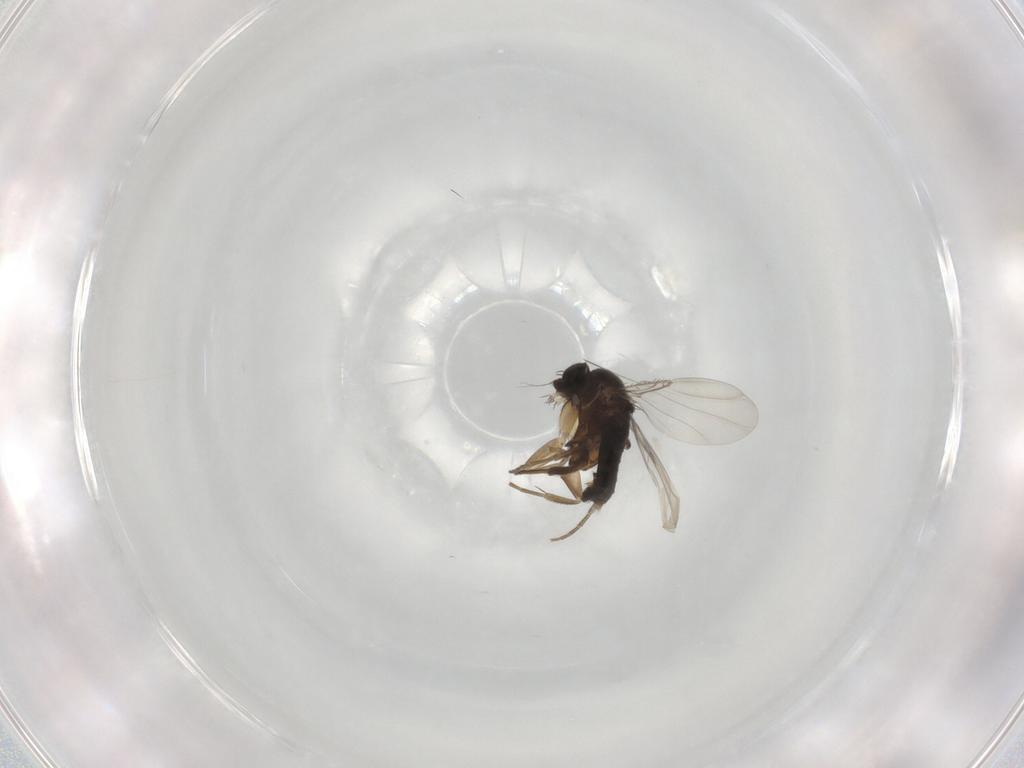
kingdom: Animalia
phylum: Arthropoda
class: Insecta
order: Diptera
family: Phoridae
